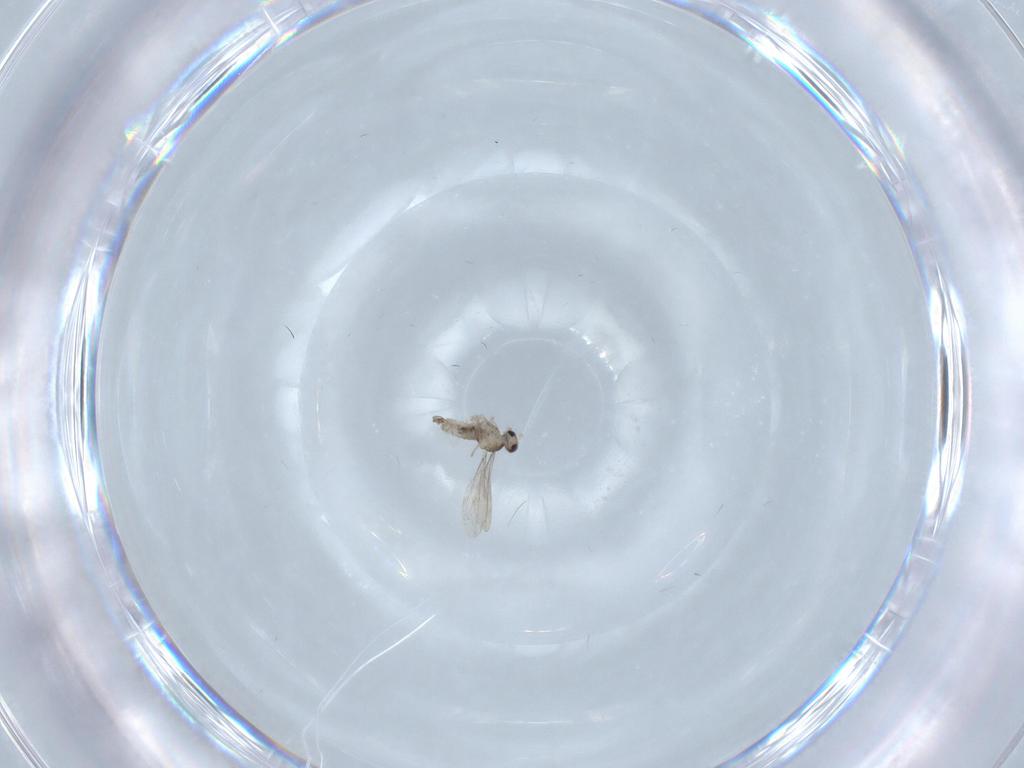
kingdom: Animalia
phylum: Arthropoda
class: Insecta
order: Diptera
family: Cecidomyiidae
